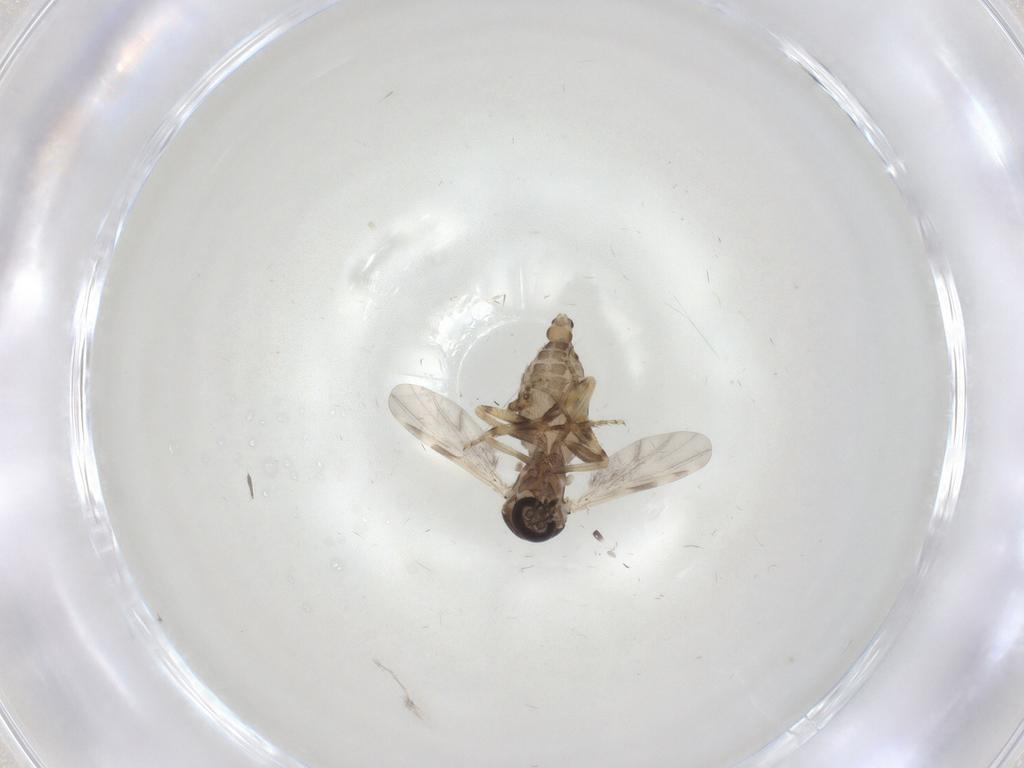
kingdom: Animalia
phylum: Arthropoda
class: Insecta
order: Diptera
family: Ceratopogonidae
